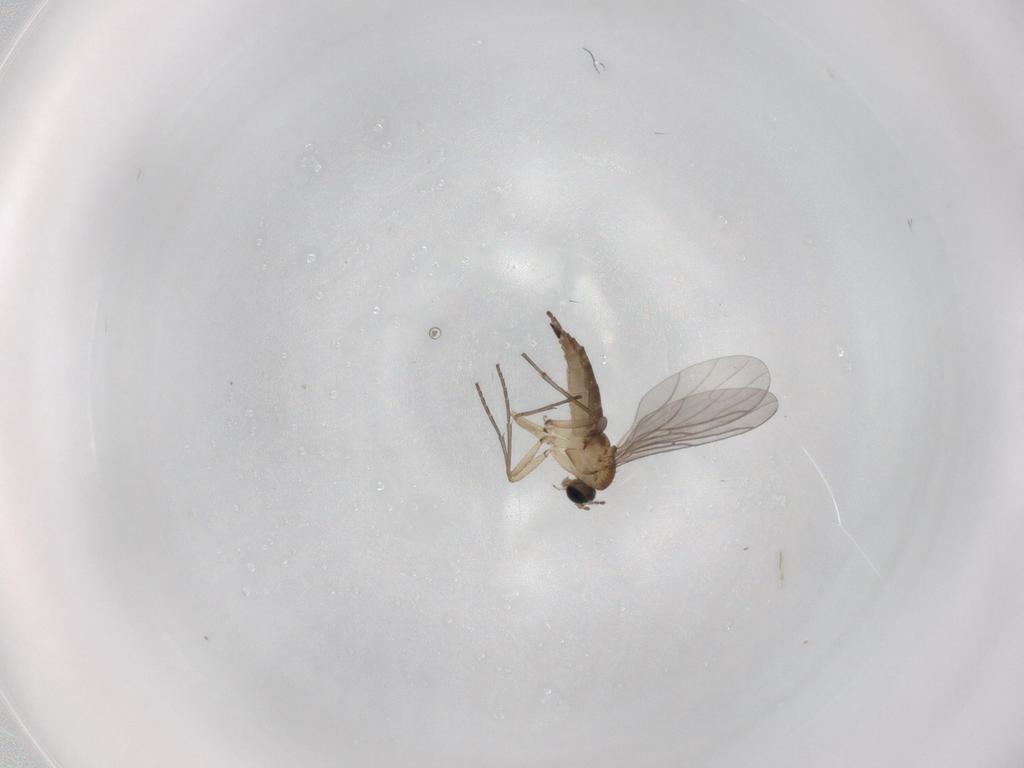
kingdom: Animalia
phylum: Arthropoda
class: Insecta
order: Diptera
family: Sciaridae
